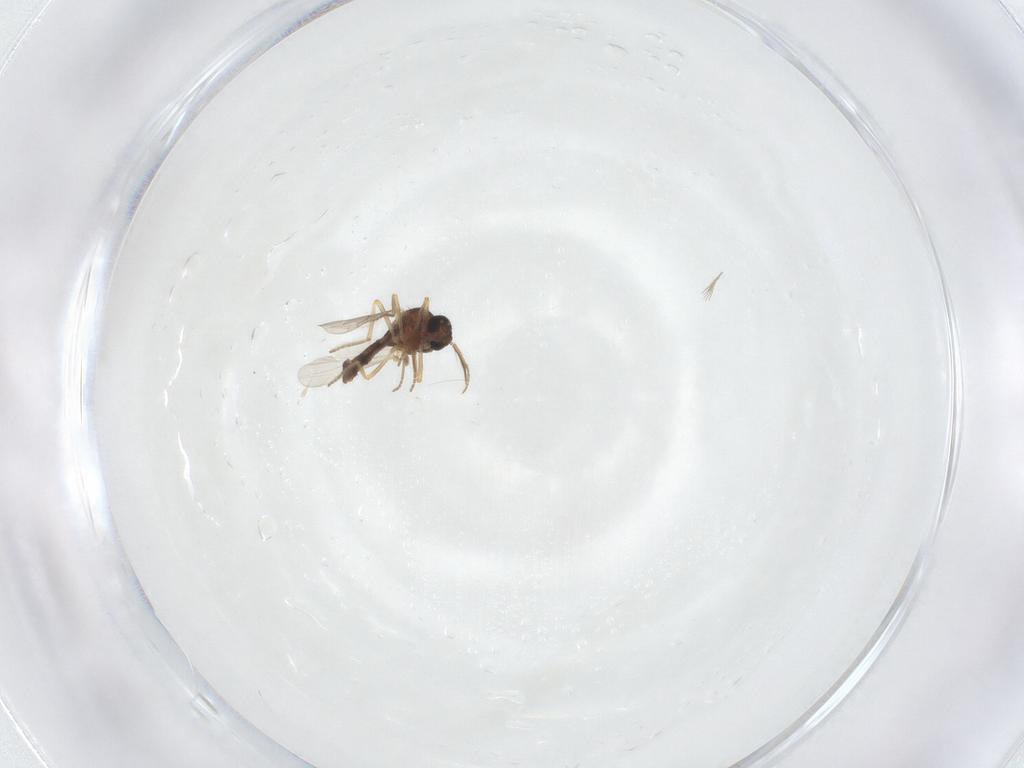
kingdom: Animalia
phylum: Arthropoda
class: Insecta
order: Diptera
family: Ceratopogonidae
